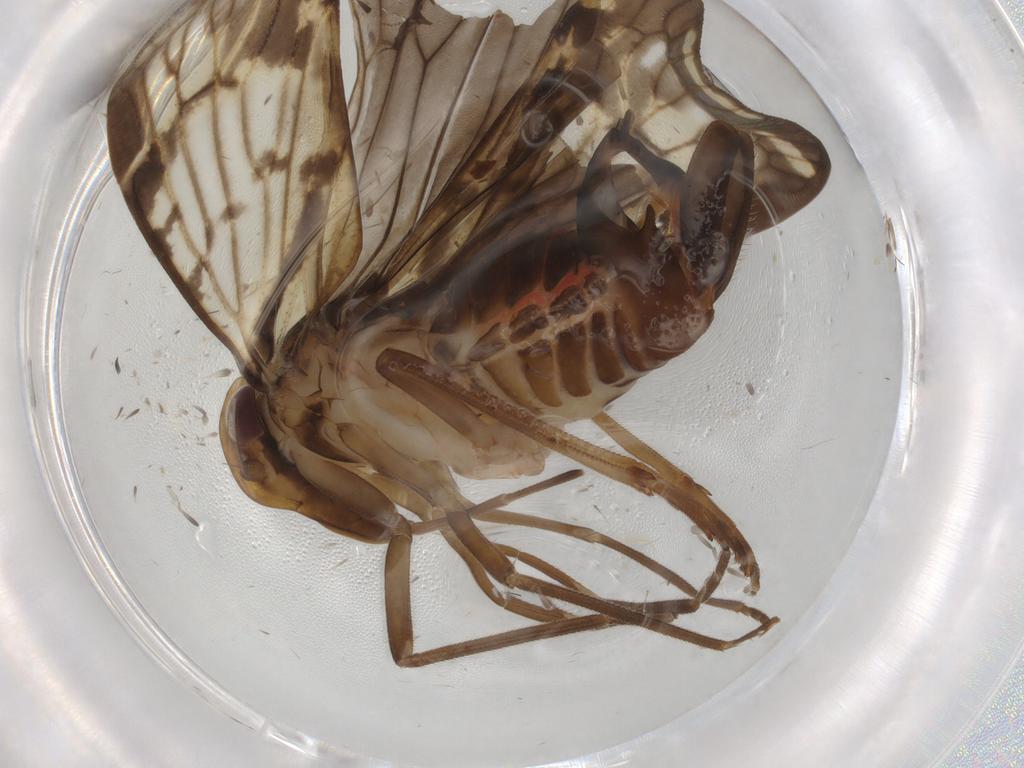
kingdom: Animalia
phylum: Arthropoda
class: Insecta
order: Hemiptera
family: Cixiidae
